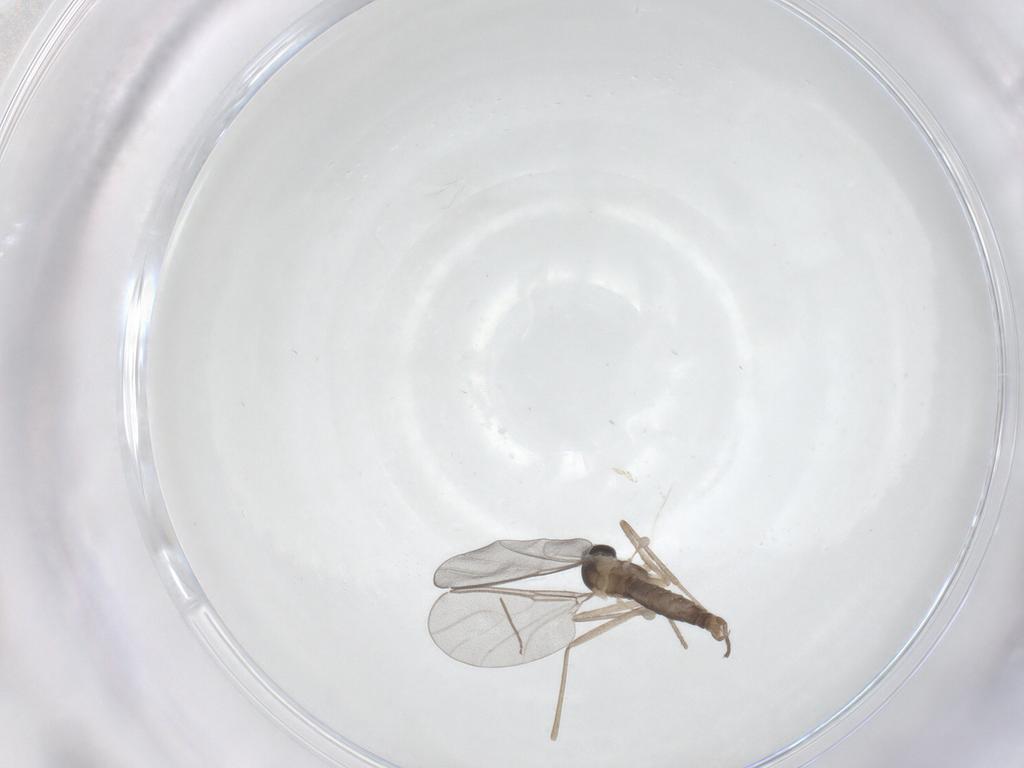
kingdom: Animalia
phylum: Arthropoda
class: Insecta
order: Diptera
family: Cecidomyiidae
